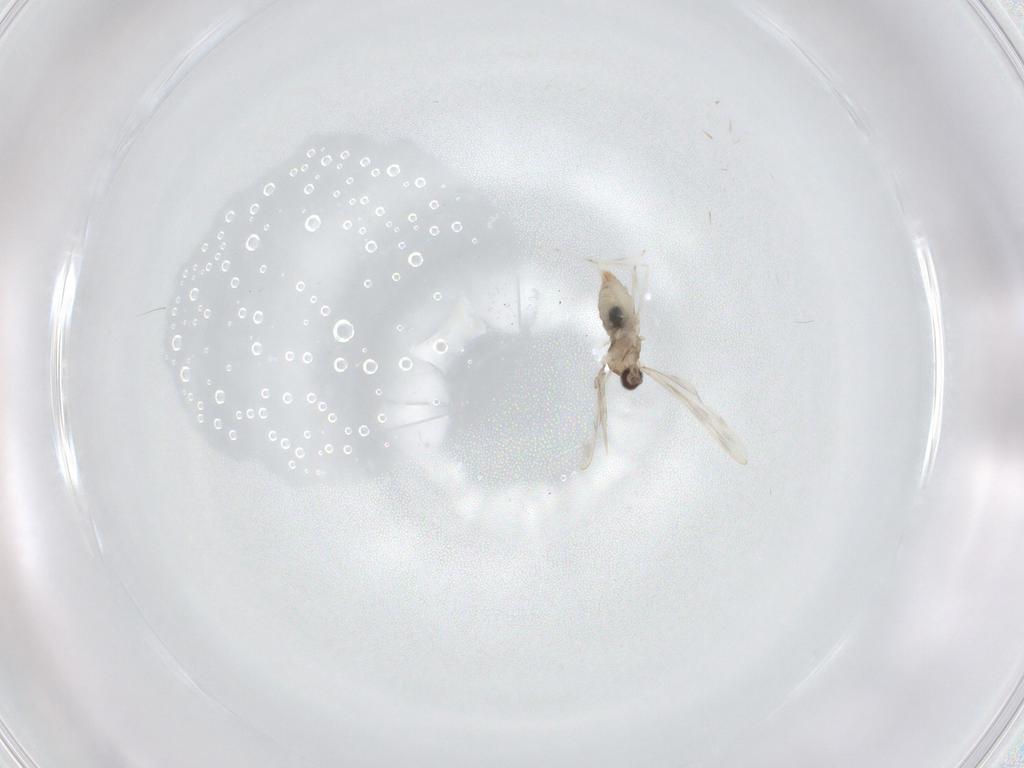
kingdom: Animalia
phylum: Arthropoda
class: Insecta
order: Diptera
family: Cecidomyiidae
